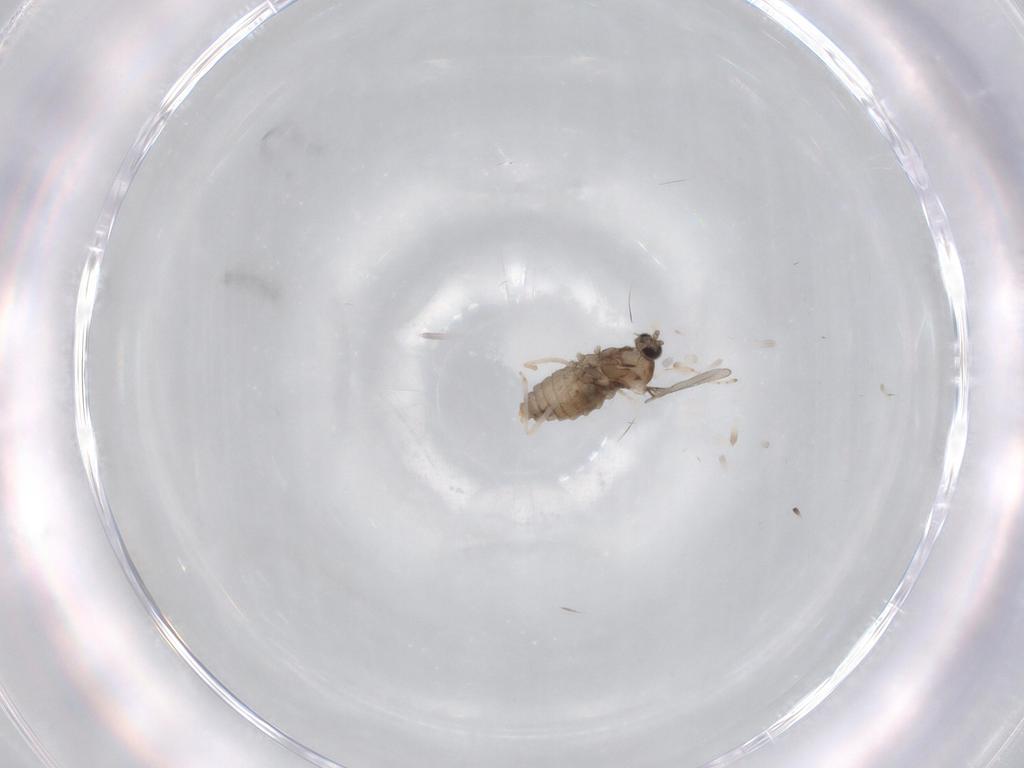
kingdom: Animalia
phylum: Arthropoda
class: Insecta
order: Diptera
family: Cecidomyiidae
